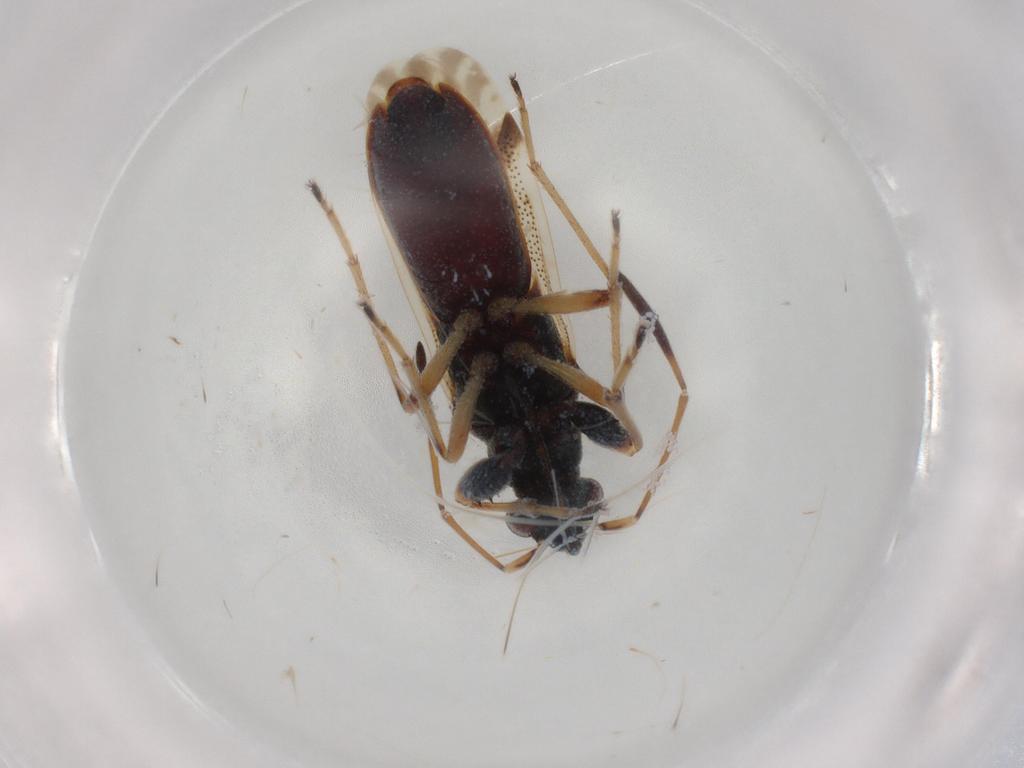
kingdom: Animalia
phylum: Arthropoda
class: Insecta
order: Hemiptera
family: Rhyparochromidae
